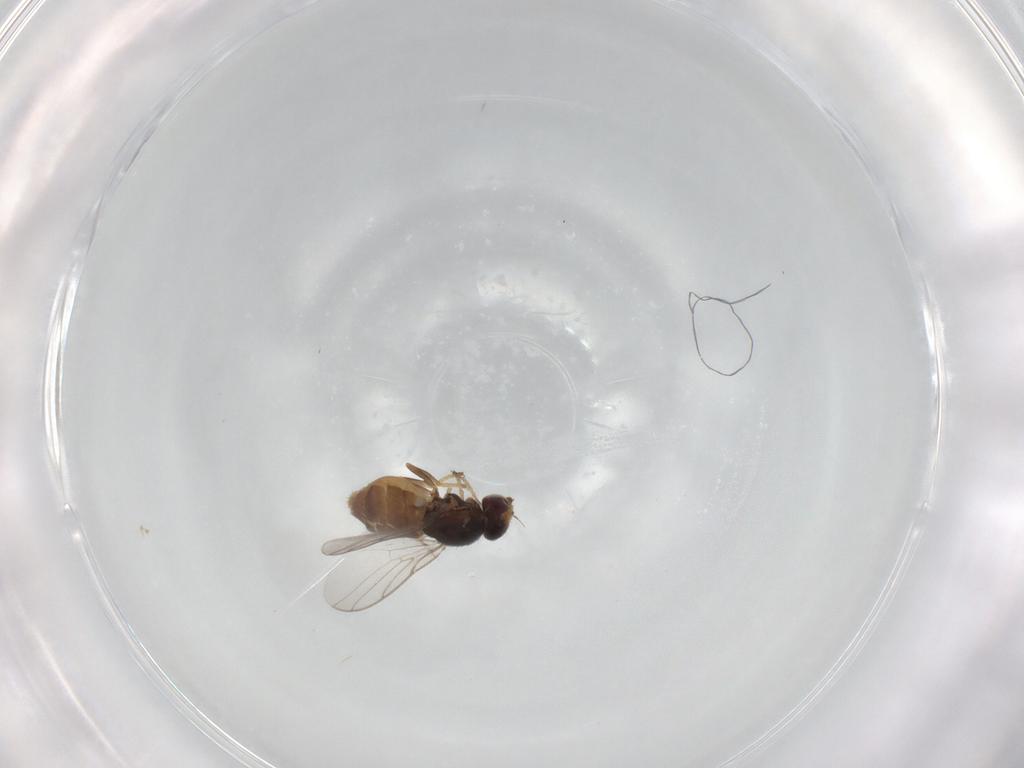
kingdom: Animalia
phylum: Arthropoda
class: Insecta
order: Diptera
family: Chloropidae
